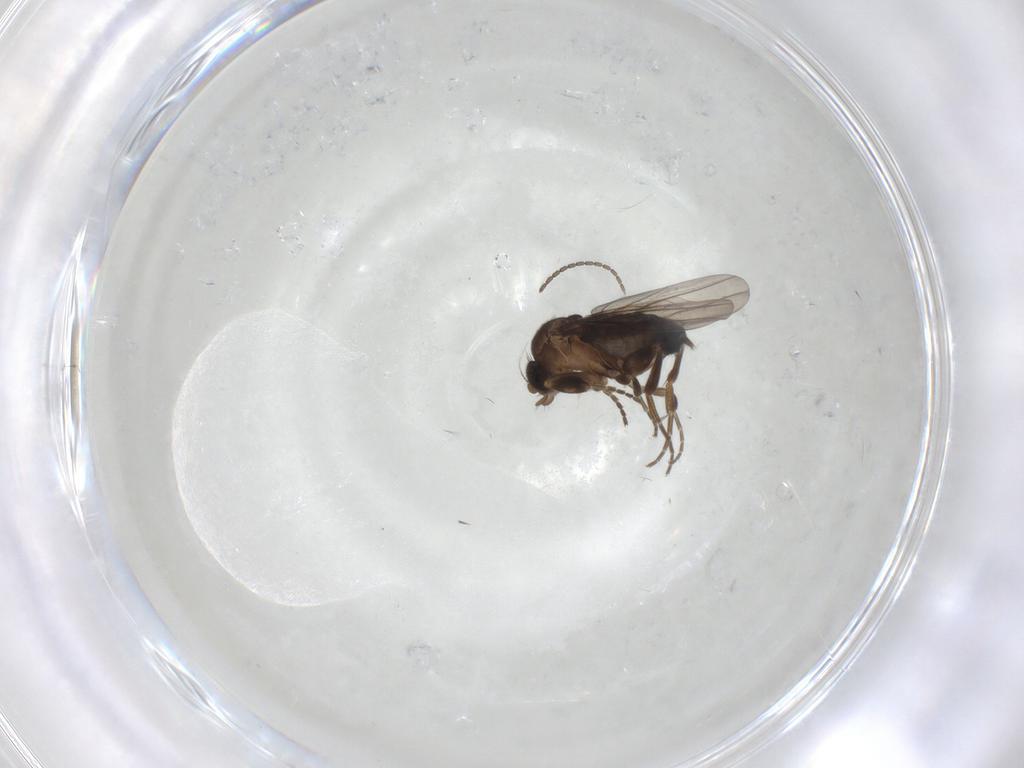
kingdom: Animalia
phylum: Arthropoda
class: Insecta
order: Diptera
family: Phoridae
